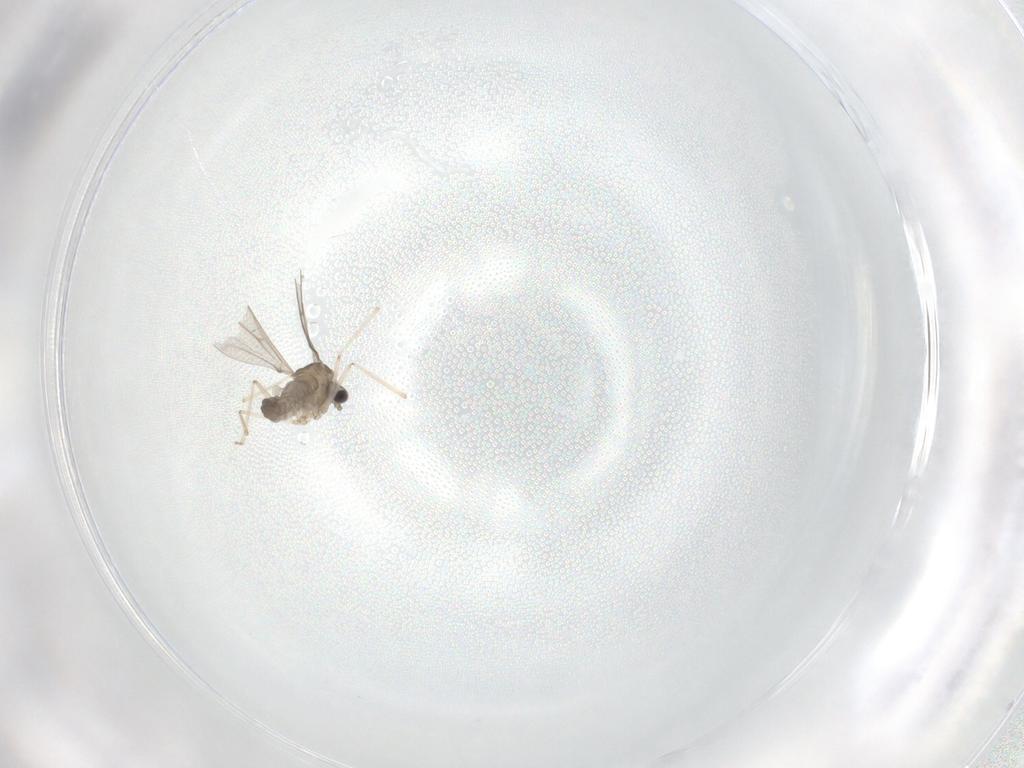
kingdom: Animalia
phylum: Arthropoda
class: Insecta
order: Diptera
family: Cecidomyiidae
